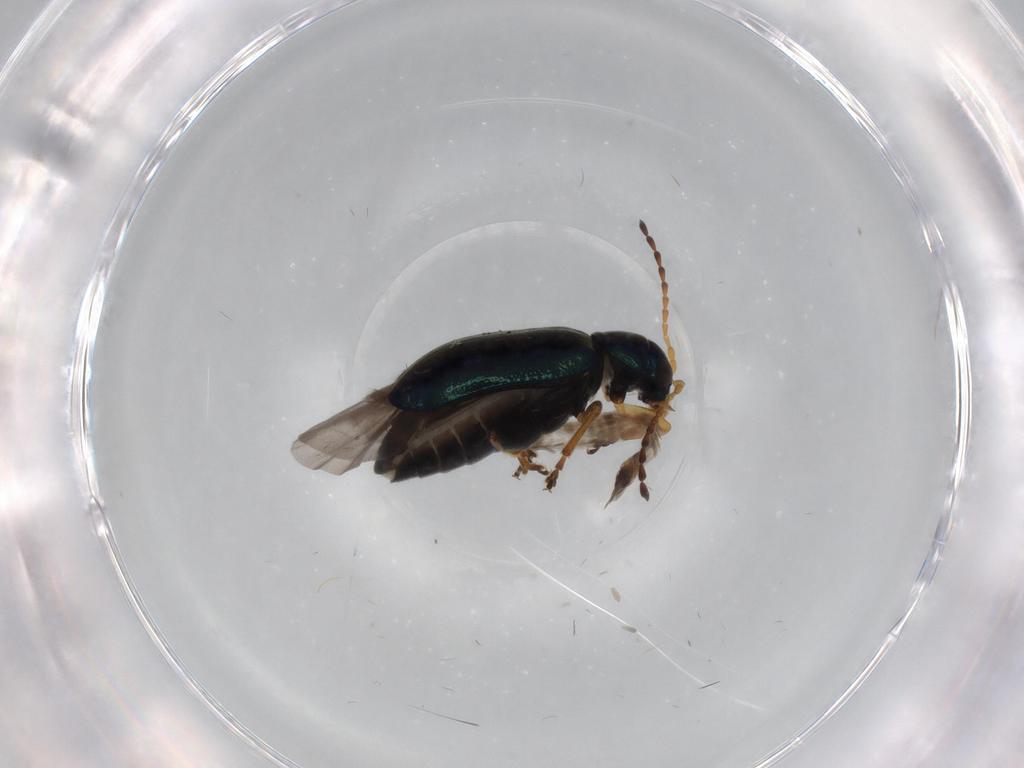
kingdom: Animalia
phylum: Arthropoda
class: Insecta
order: Coleoptera
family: Chrysomelidae
